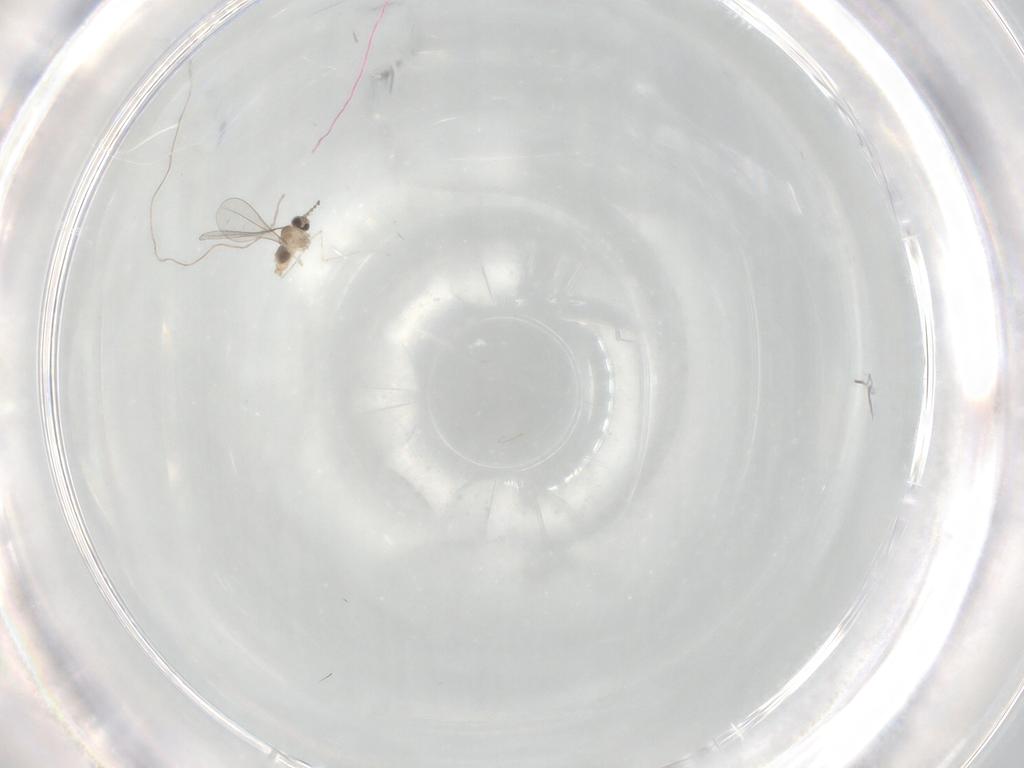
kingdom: Animalia
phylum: Arthropoda
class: Insecta
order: Diptera
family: Cecidomyiidae
